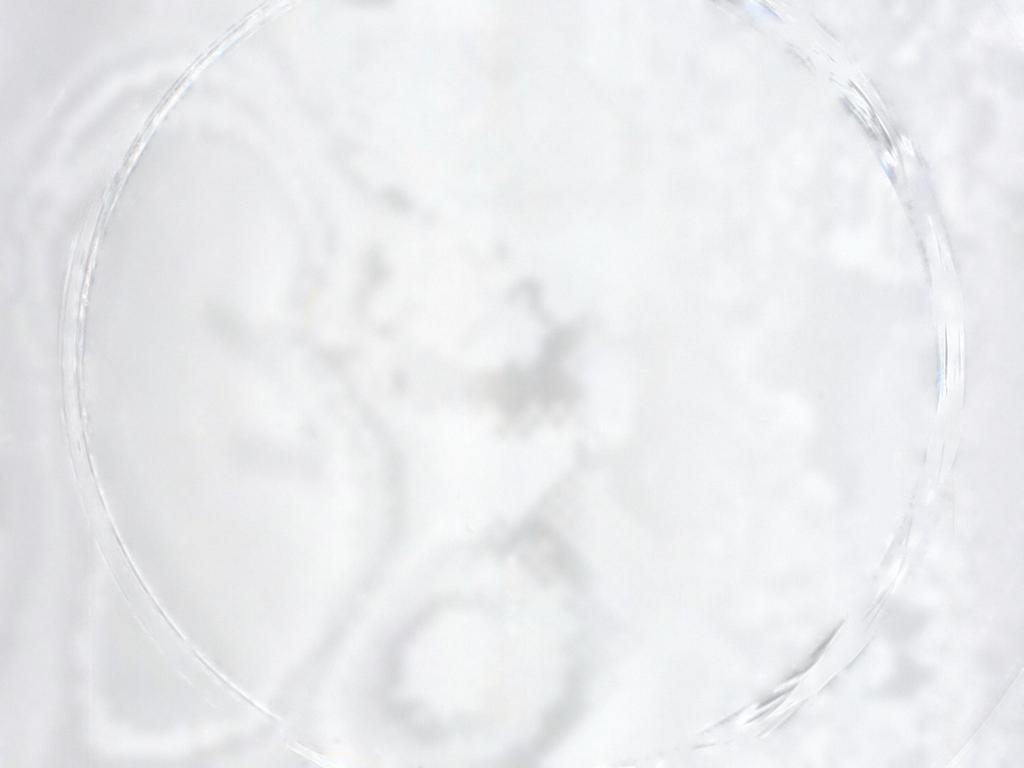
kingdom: Animalia
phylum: Arthropoda
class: Insecta
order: Diptera
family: Sciaridae
